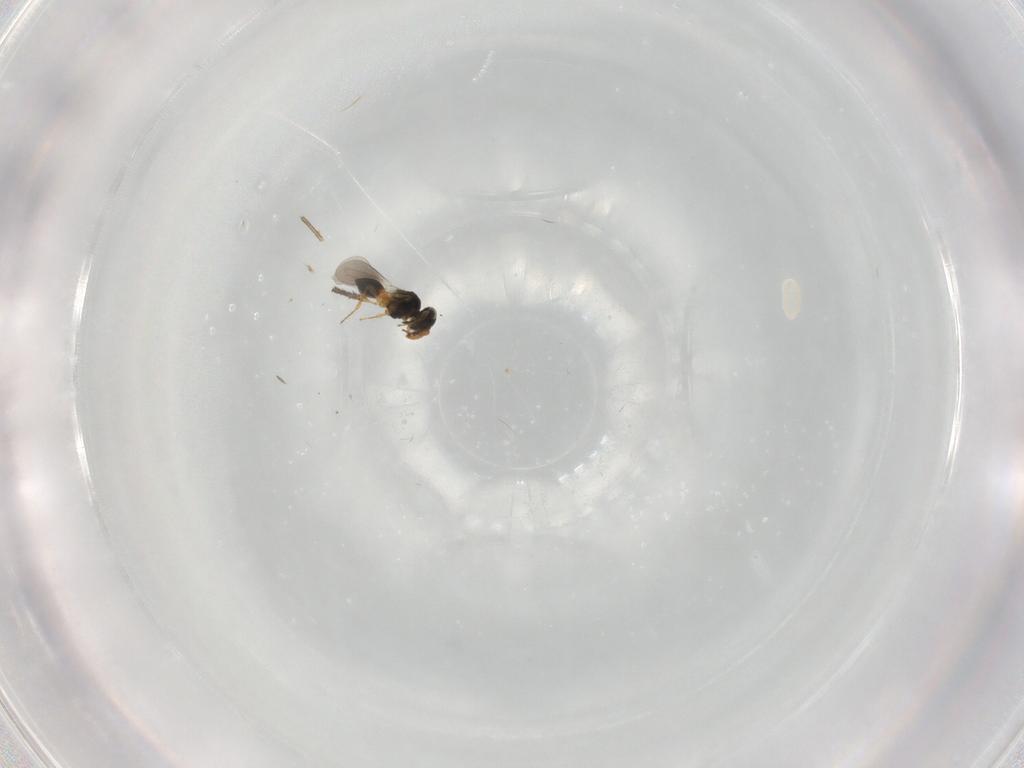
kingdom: Animalia
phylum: Arthropoda
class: Insecta
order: Hymenoptera
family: Platygastridae
